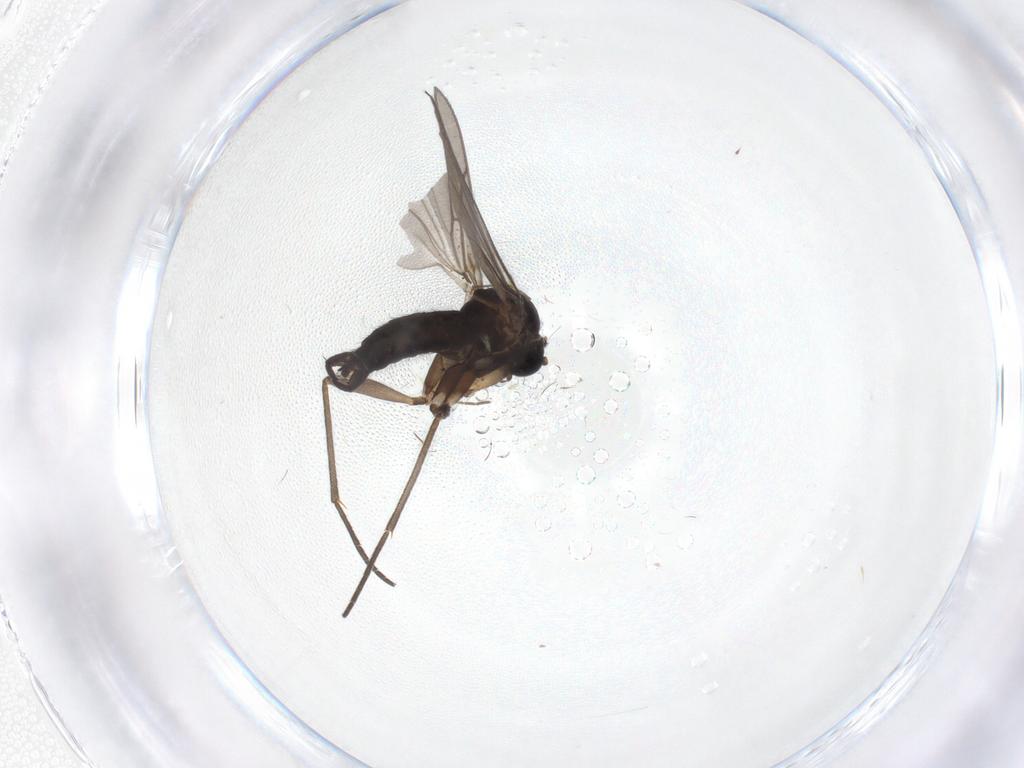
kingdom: Animalia
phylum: Arthropoda
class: Insecta
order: Diptera
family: Sciaridae
